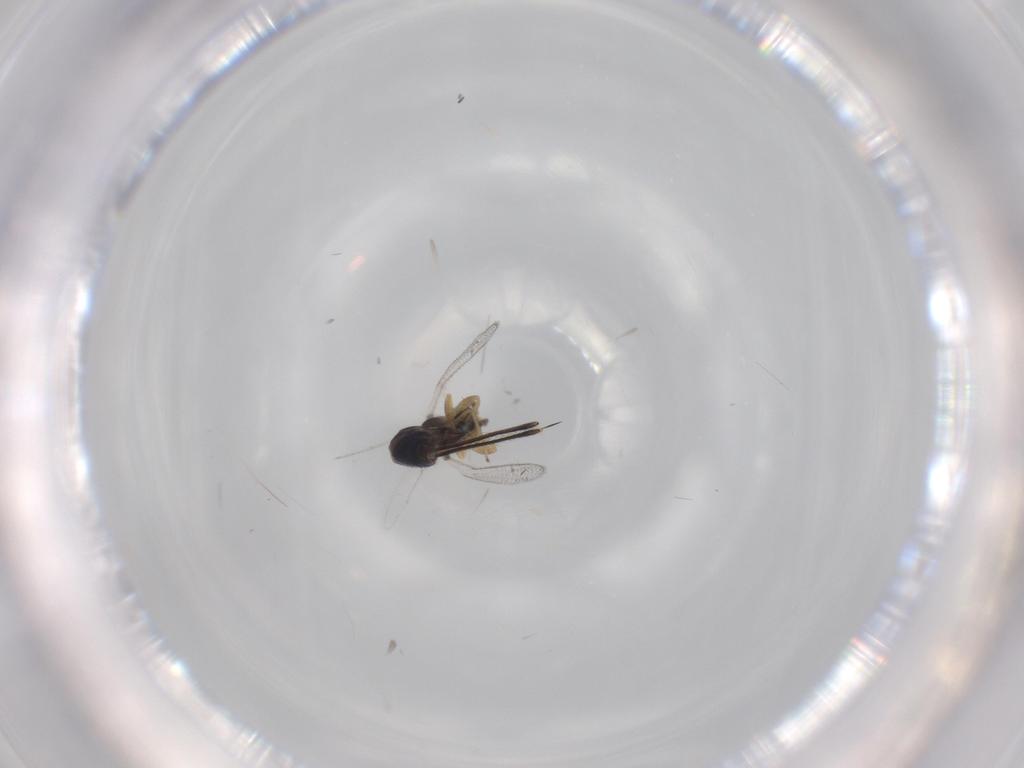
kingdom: Animalia
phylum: Arthropoda
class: Insecta
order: Hymenoptera
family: Torymidae
